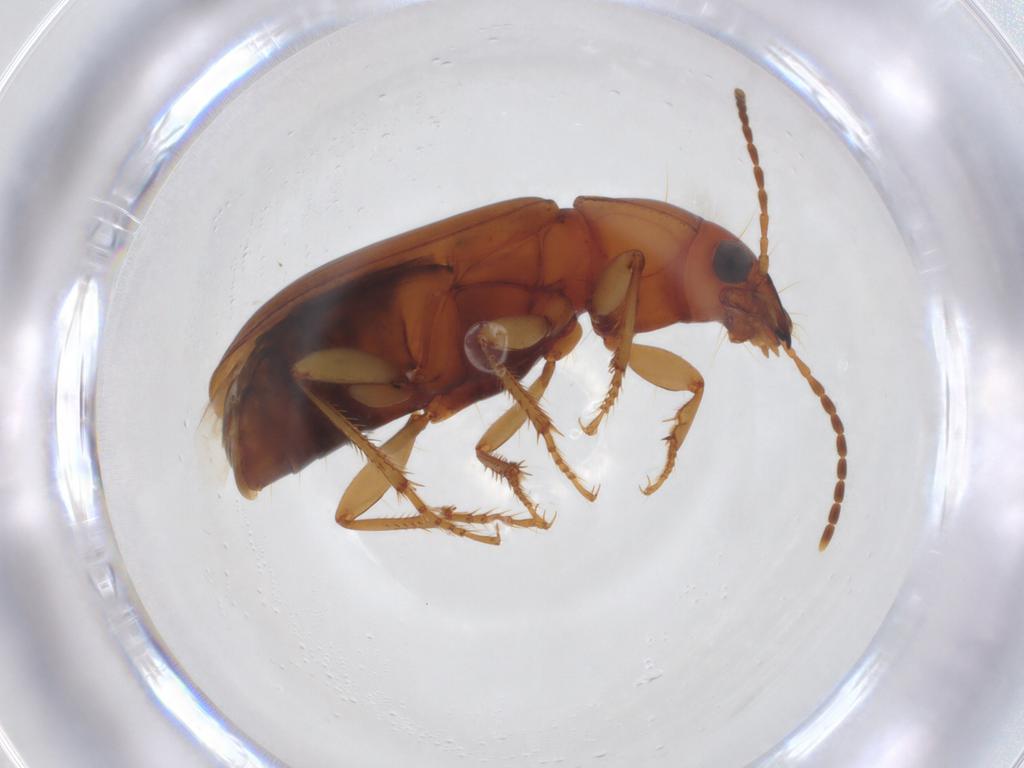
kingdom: Animalia
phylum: Arthropoda
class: Insecta
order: Coleoptera
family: Carabidae
